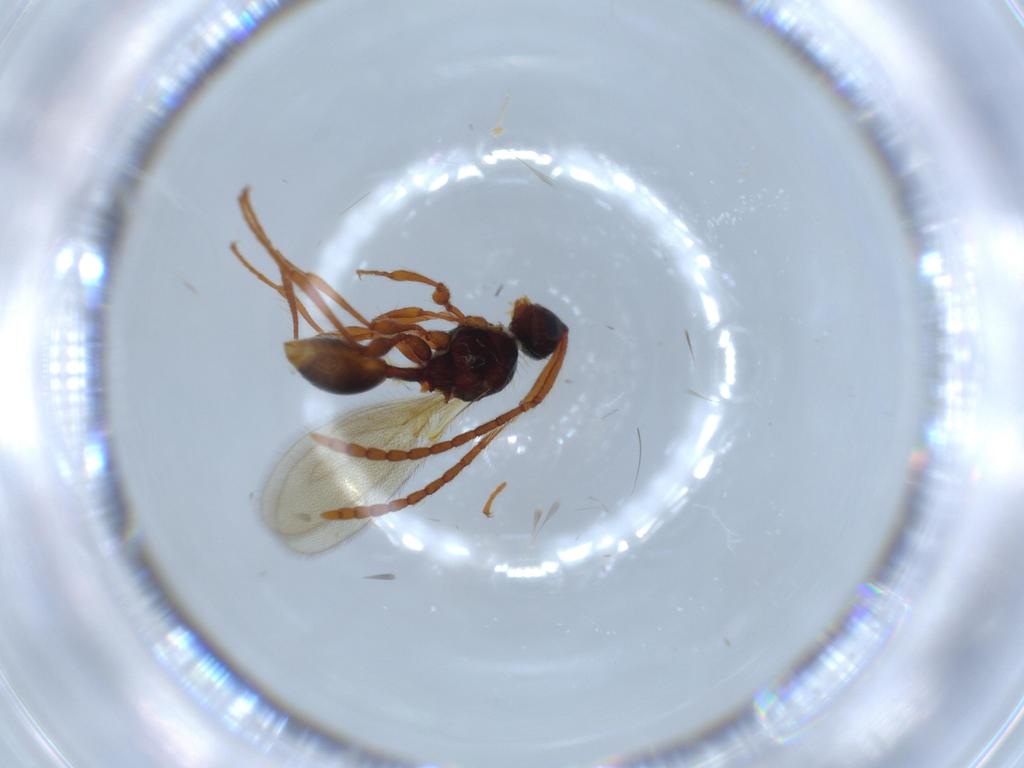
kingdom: Animalia
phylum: Arthropoda
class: Insecta
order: Hymenoptera
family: Diapriidae
